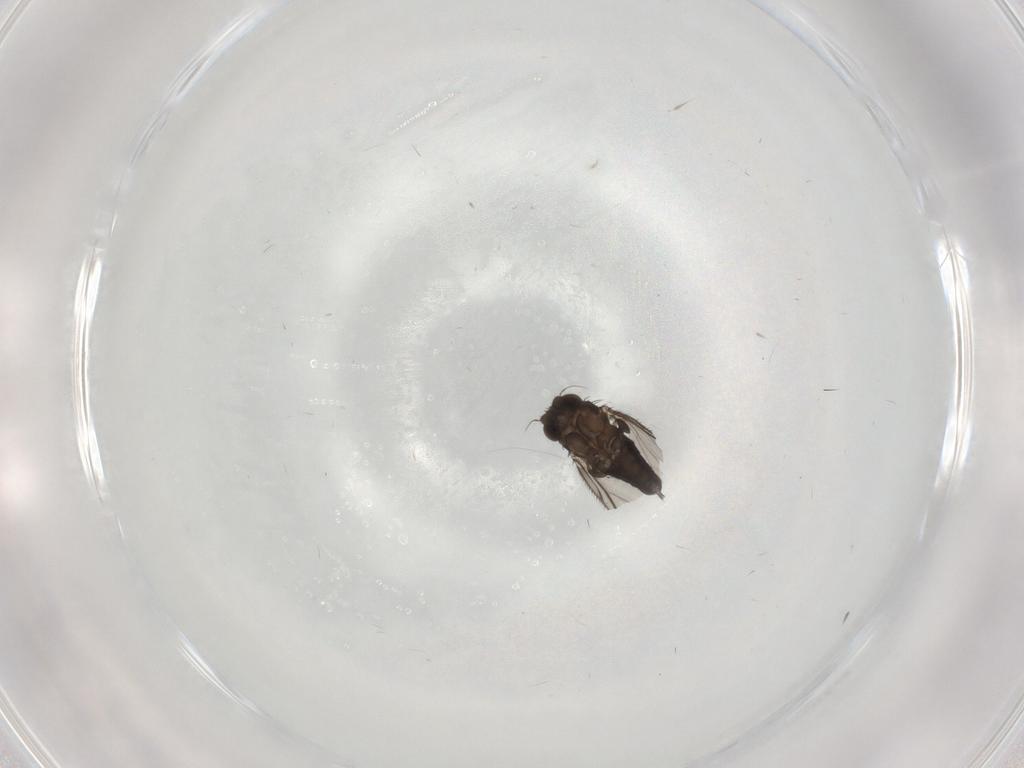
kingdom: Animalia
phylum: Arthropoda
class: Insecta
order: Diptera
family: Phoridae
